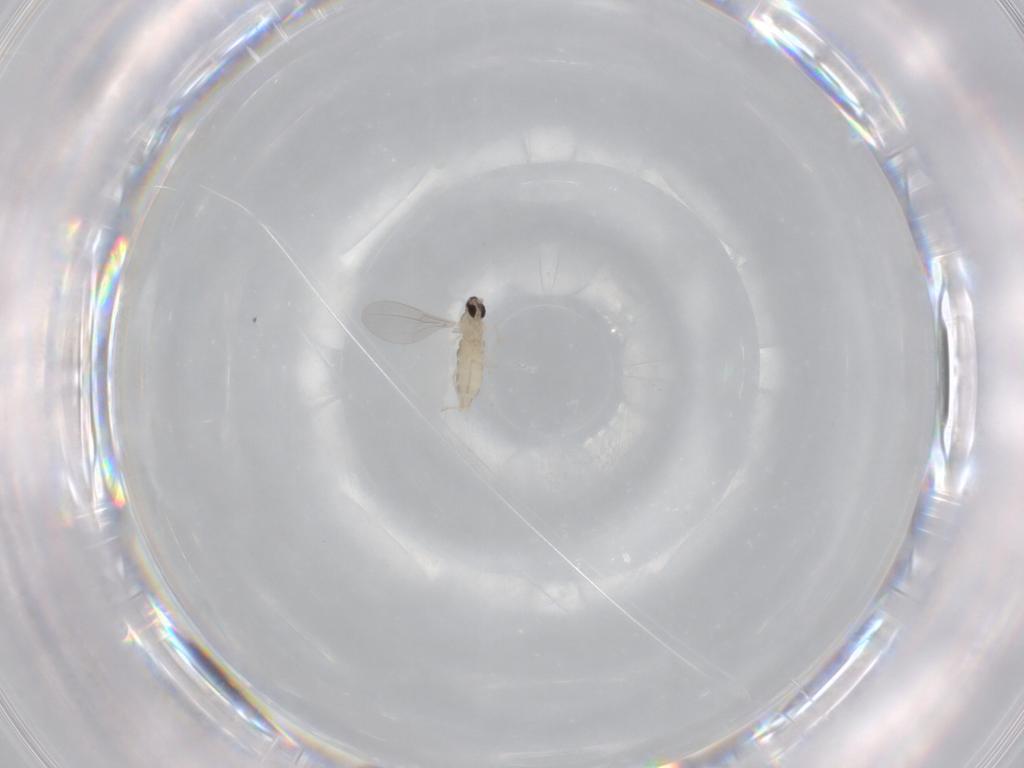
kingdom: Animalia
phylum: Arthropoda
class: Insecta
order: Diptera
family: Cecidomyiidae
